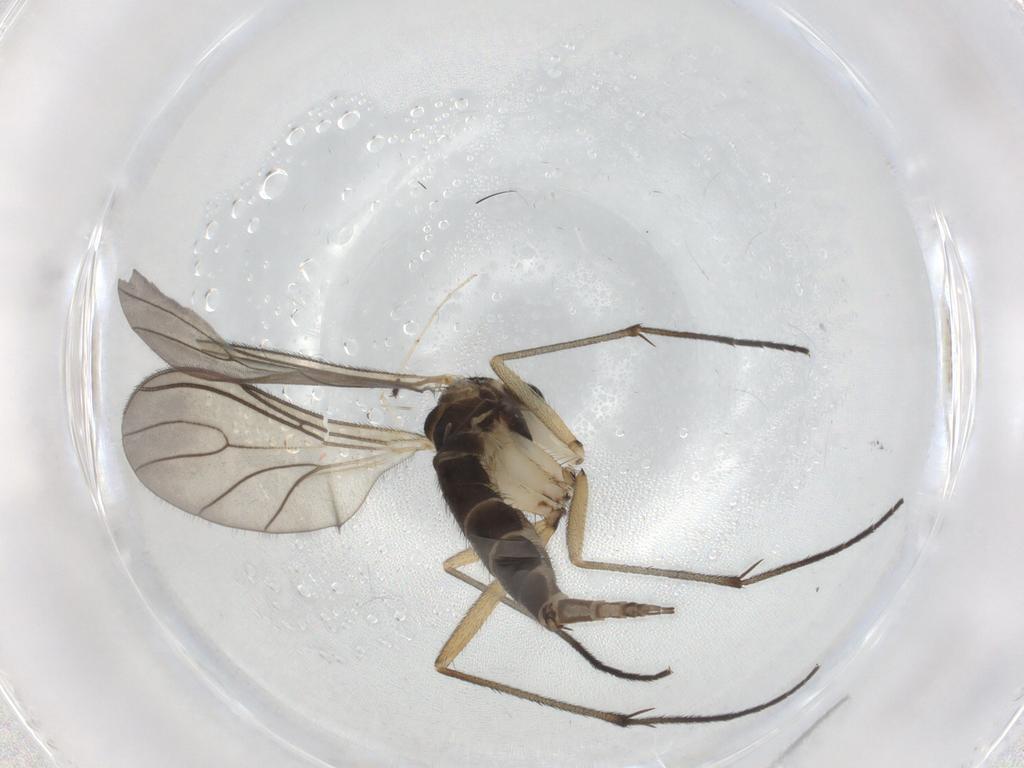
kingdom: Animalia
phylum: Arthropoda
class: Insecta
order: Diptera
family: Sciaridae
